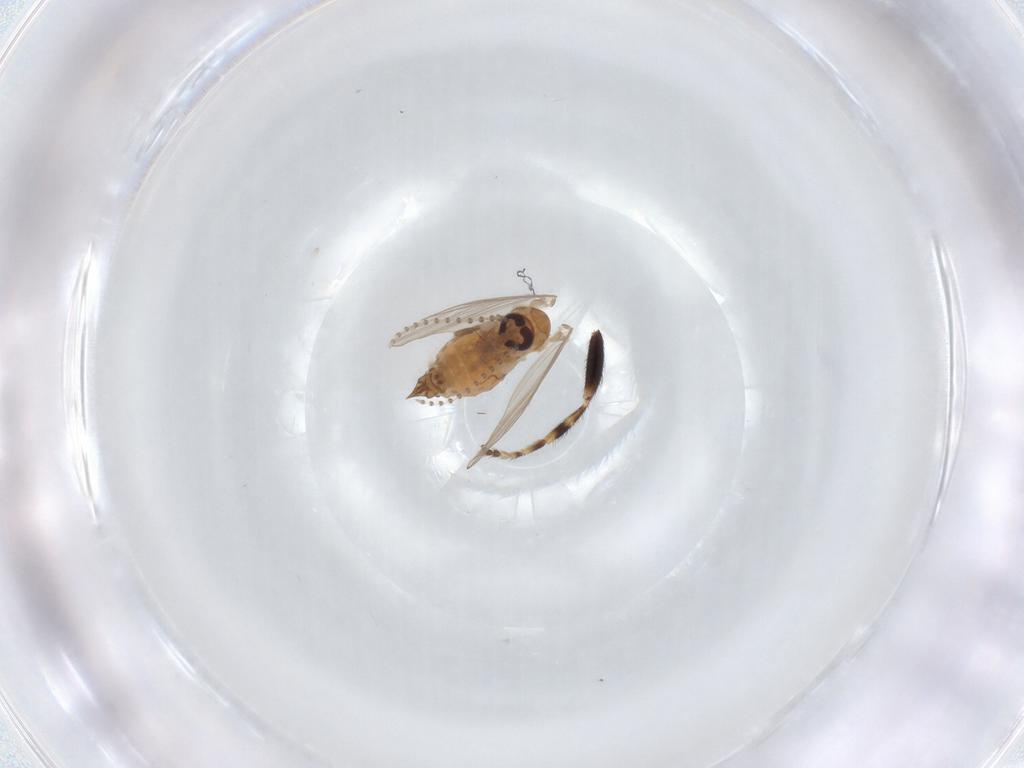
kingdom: Animalia
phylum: Arthropoda
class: Insecta
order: Diptera
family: Psychodidae
